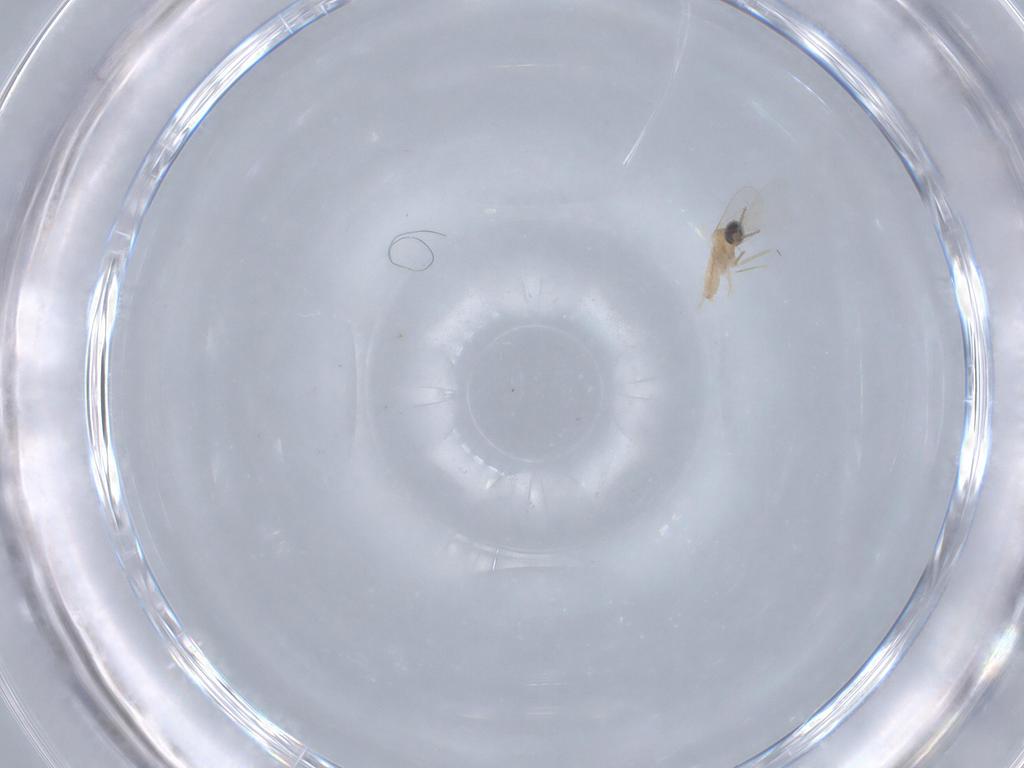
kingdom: Animalia
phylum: Arthropoda
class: Insecta
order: Diptera
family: Cecidomyiidae
